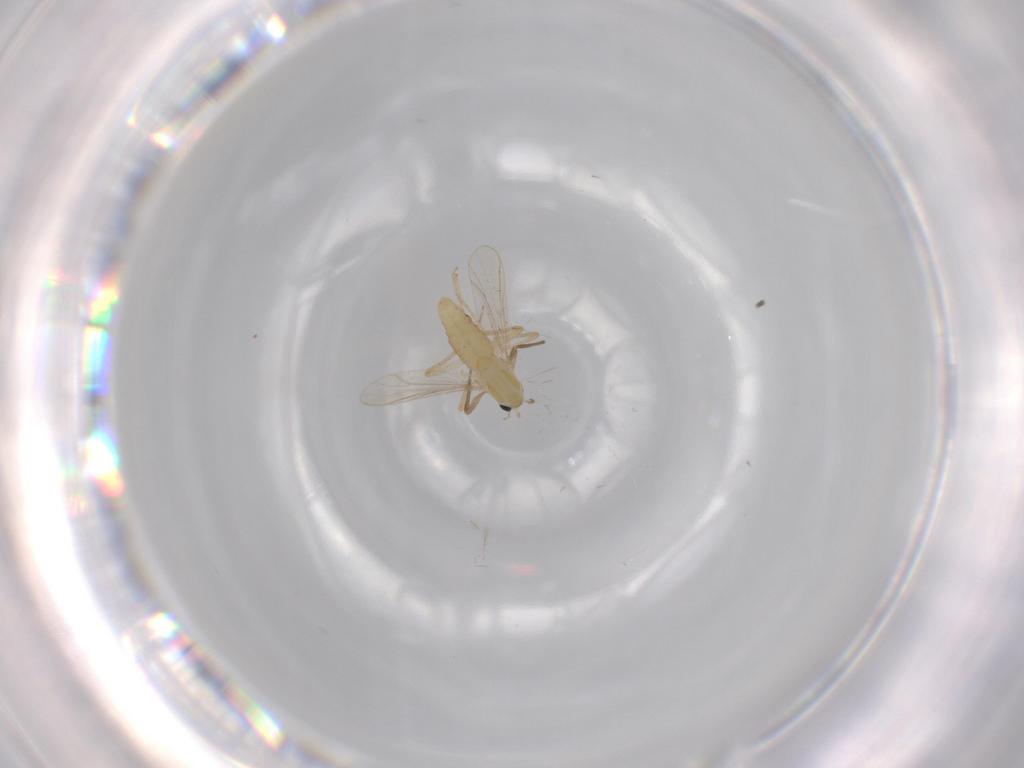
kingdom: Animalia
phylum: Arthropoda
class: Insecta
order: Diptera
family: Chironomidae
